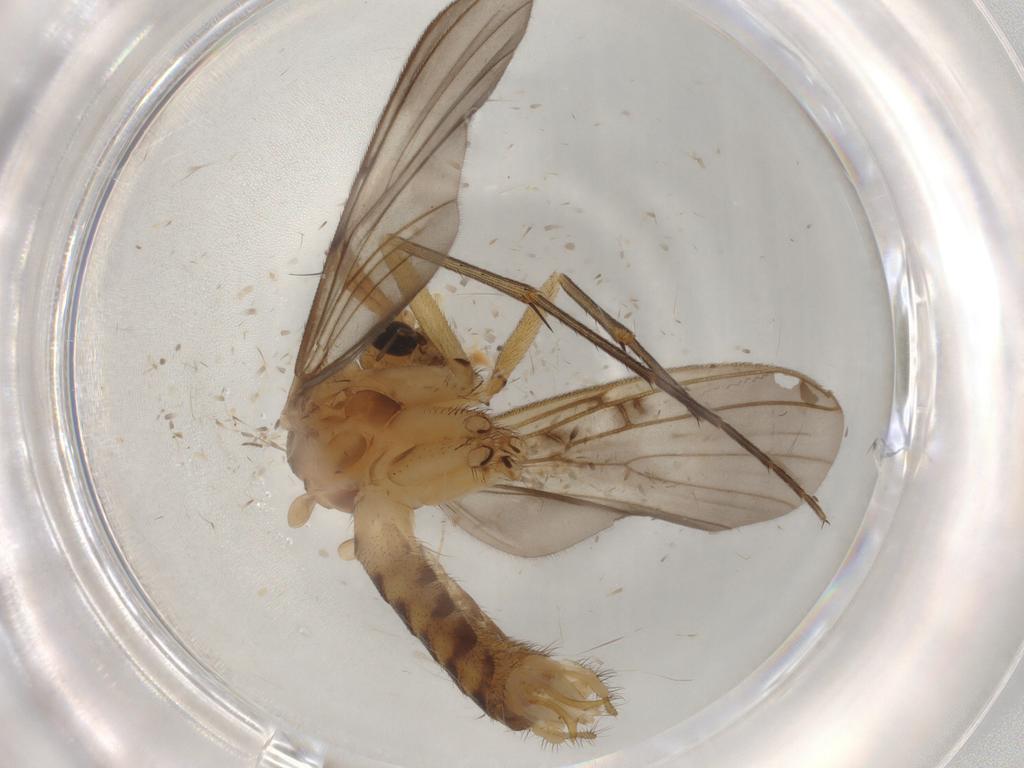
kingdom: Animalia
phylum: Arthropoda
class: Insecta
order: Diptera
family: Mycetophilidae
